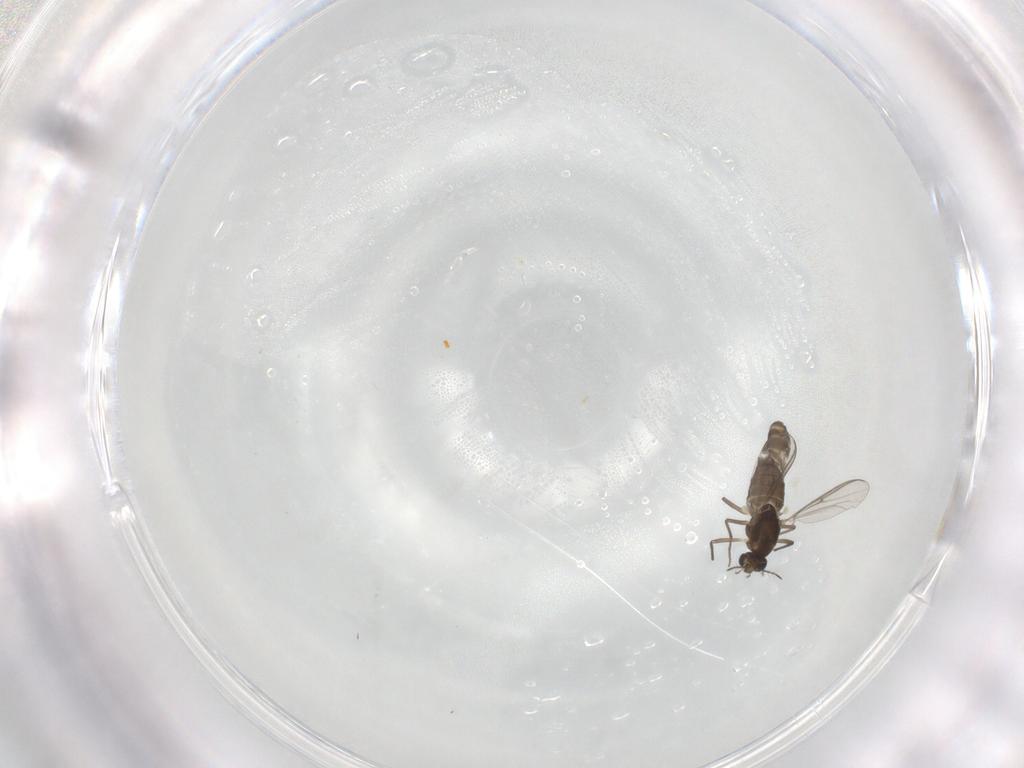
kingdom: Animalia
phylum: Arthropoda
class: Insecta
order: Diptera
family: Chironomidae
